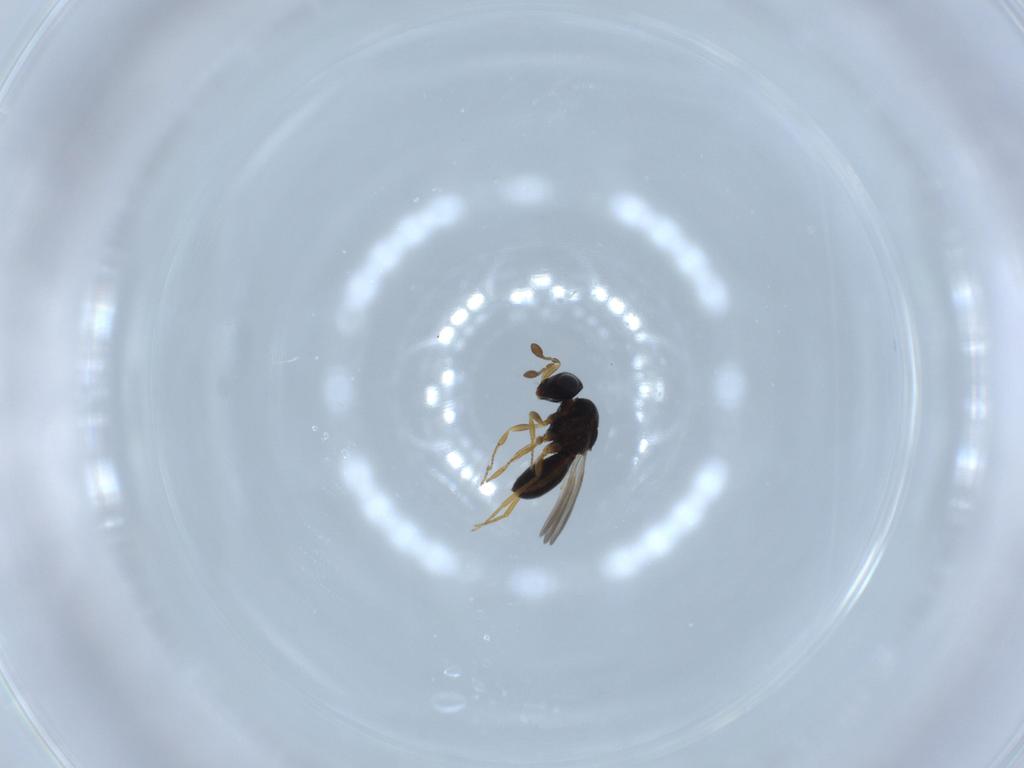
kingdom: Animalia
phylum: Arthropoda
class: Insecta
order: Hymenoptera
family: Scelionidae
